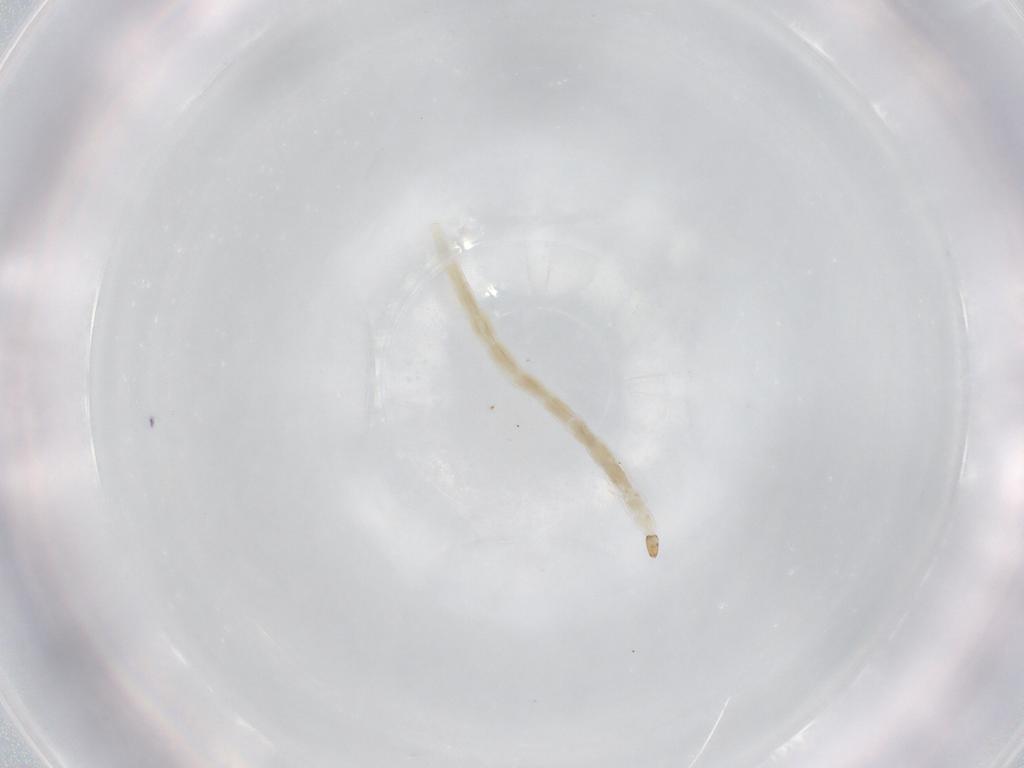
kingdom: Animalia
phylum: Arthropoda
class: Insecta
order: Diptera
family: Ceratopogonidae
